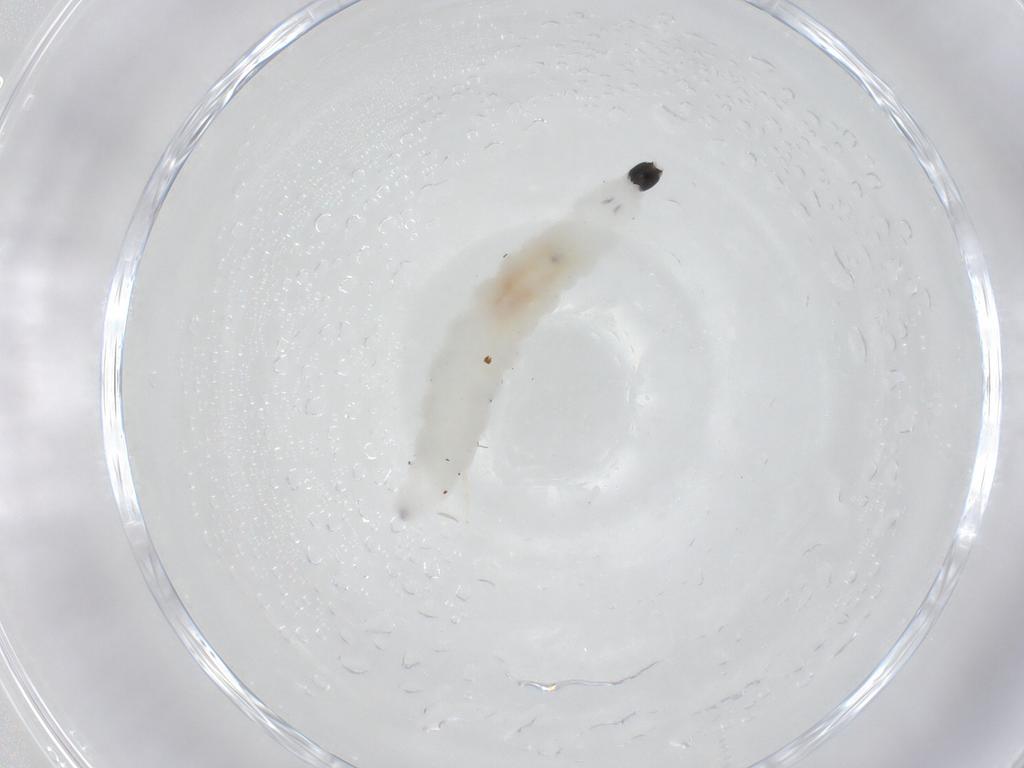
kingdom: Animalia
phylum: Arthropoda
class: Insecta
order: Diptera
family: Sciaridae
